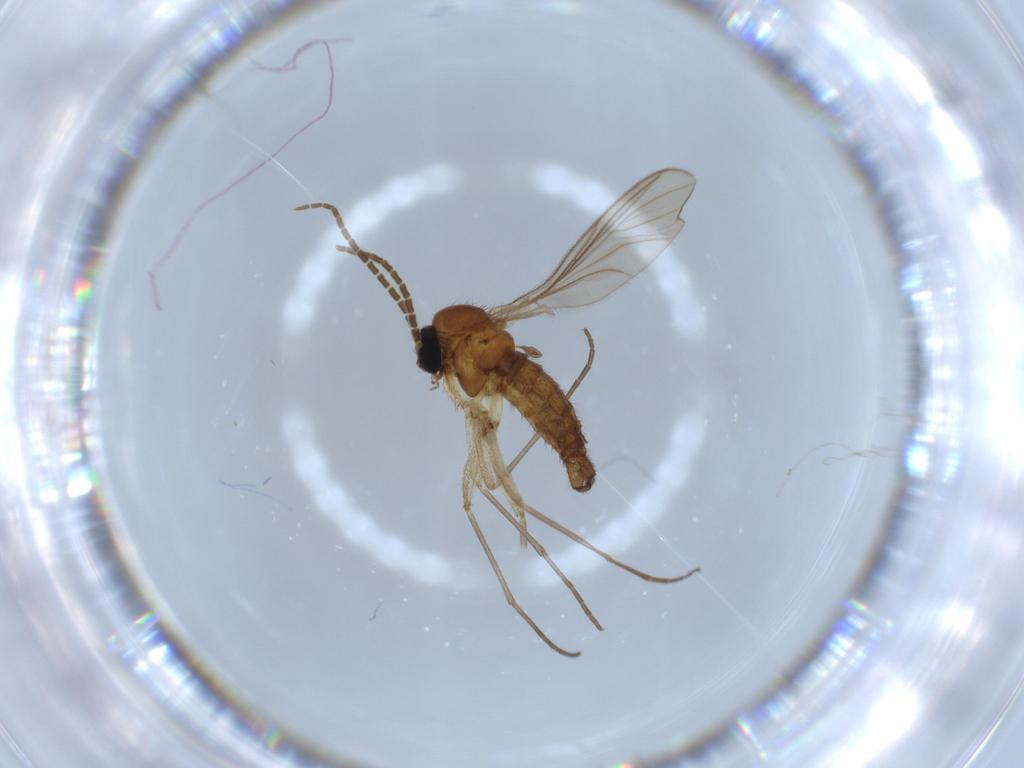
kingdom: Animalia
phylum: Arthropoda
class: Insecta
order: Diptera
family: Sciaridae
